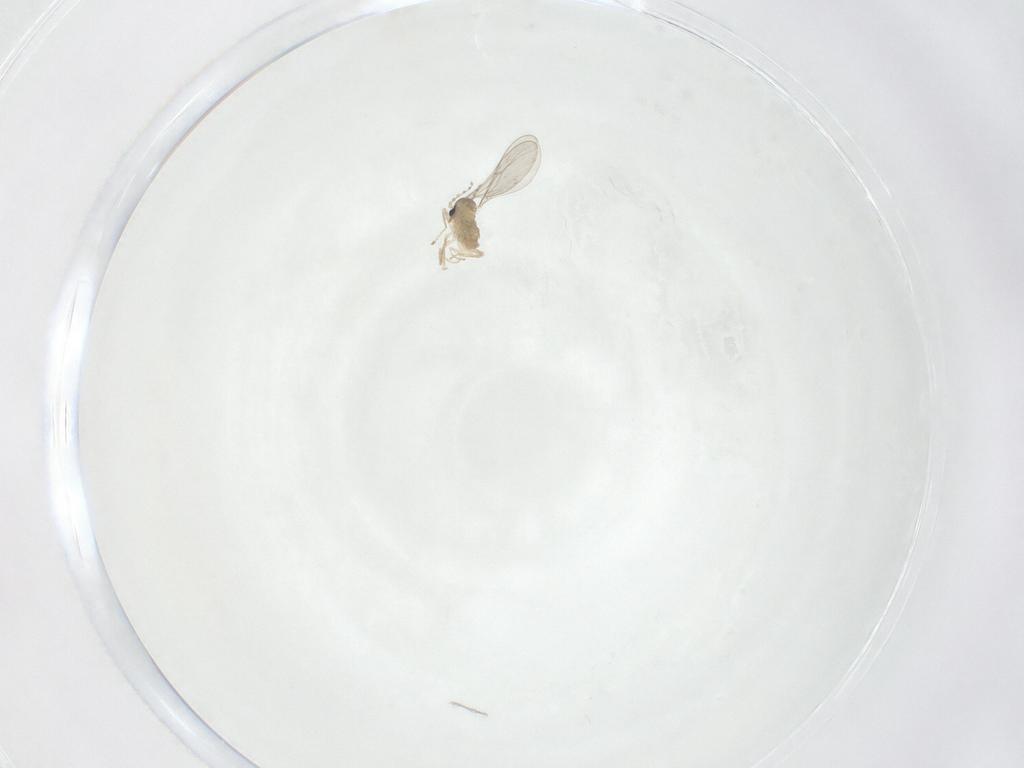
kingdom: Animalia
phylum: Arthropoda
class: Insecta
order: Diptera
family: Cecidomyiidae
